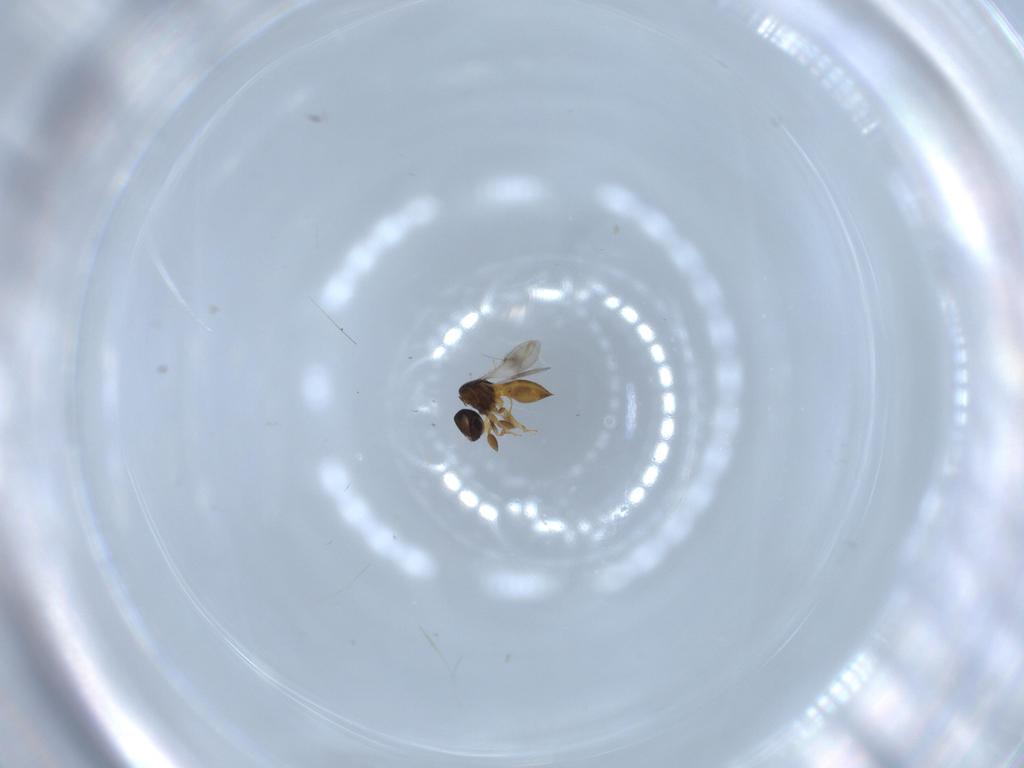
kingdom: Animalia
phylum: Arthropoda
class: Insecta
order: Hymenoptera
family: Scelionidae
